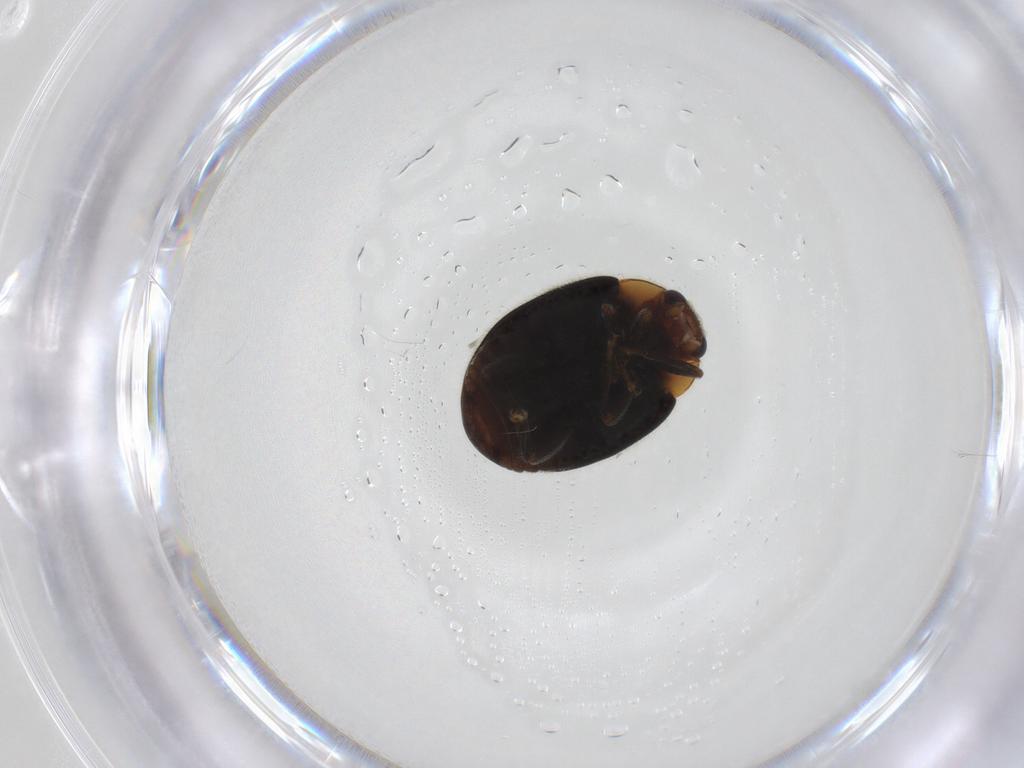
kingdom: Animalia
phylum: Arthropoda
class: Insecta
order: Coleoptera
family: Coccinellidae
